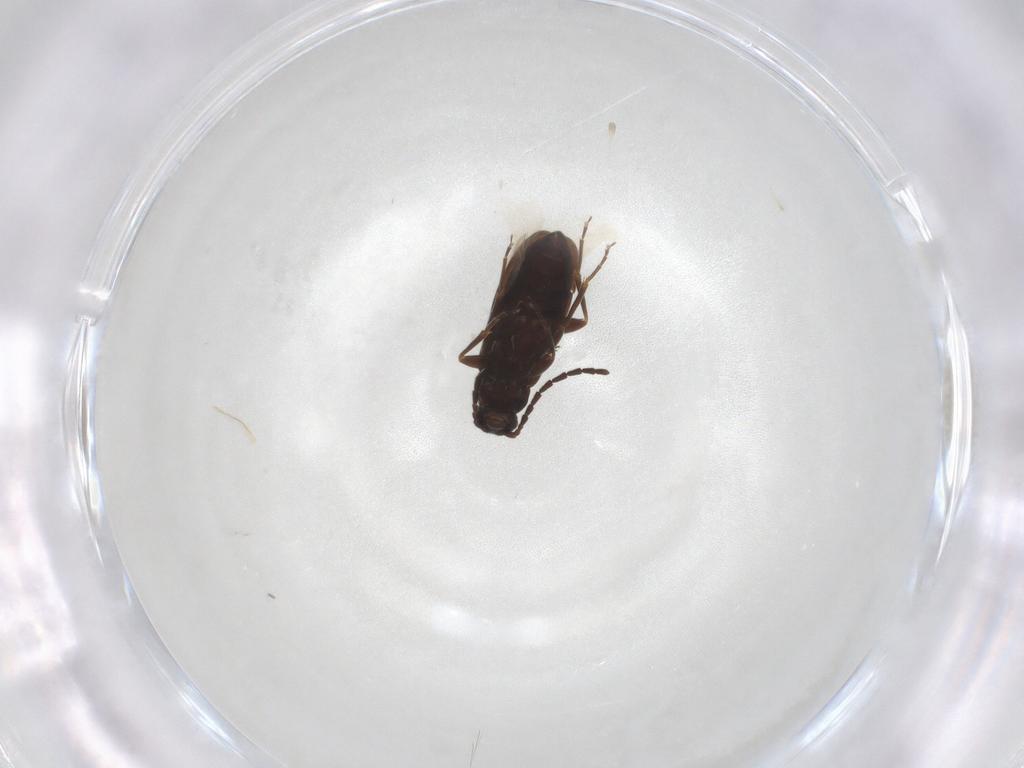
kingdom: Animalia
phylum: Arthropoda
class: Insecta
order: Coleoptera
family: Scraptiidae
